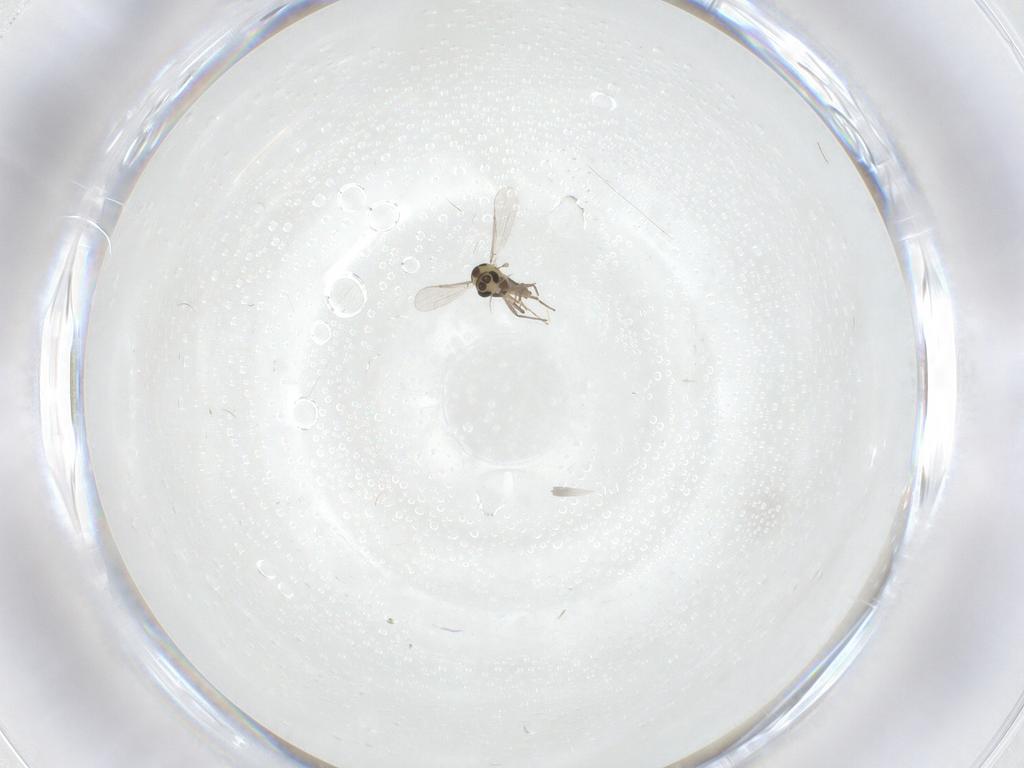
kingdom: Animalia
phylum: Arthropoda
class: Insecta
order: Diptera
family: Chironomidae
